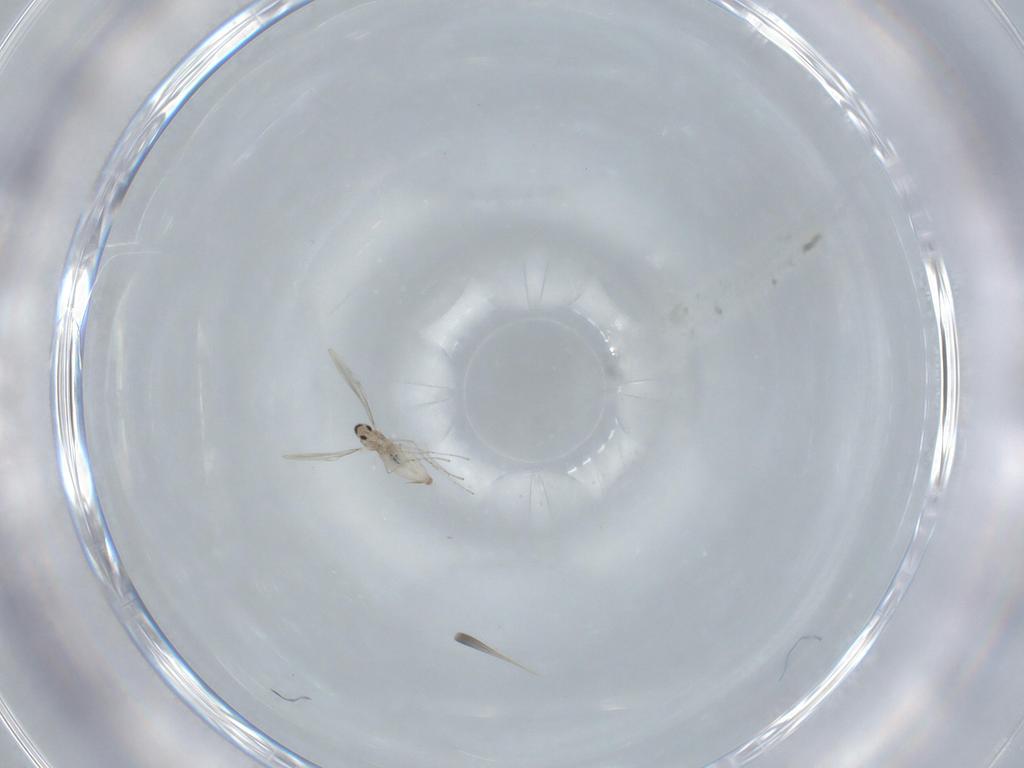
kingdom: Animalia
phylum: Arthropoda
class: Insecta
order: Diptera
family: Cecidomyiidae
